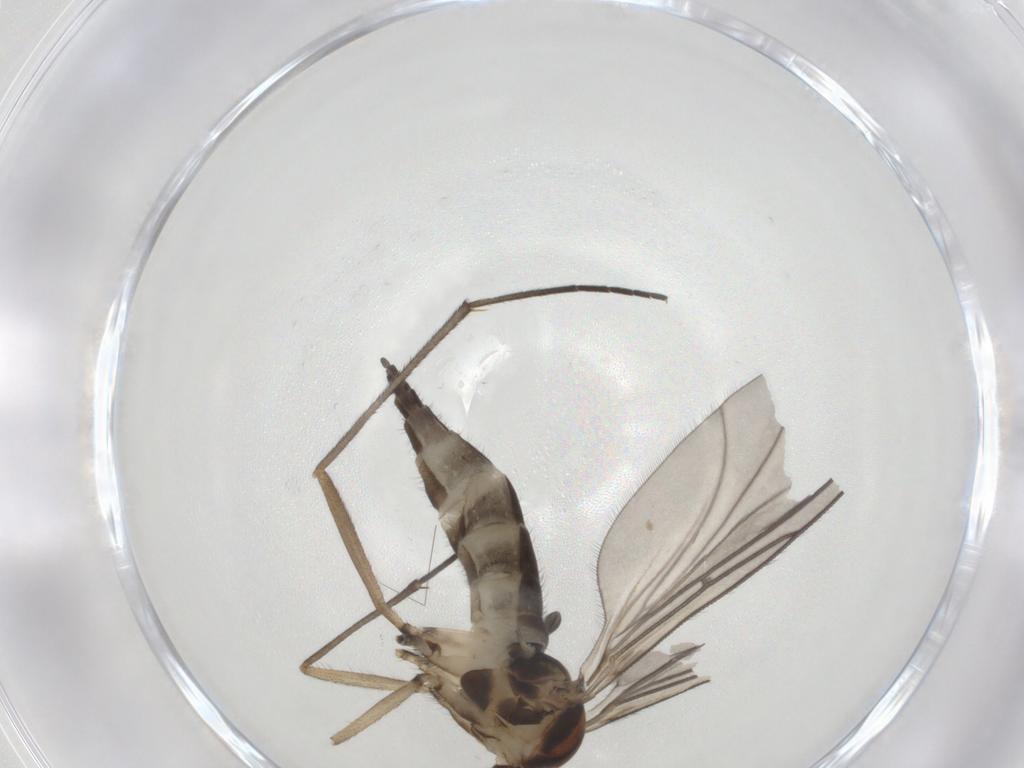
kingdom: Animalia
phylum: Arthropoda
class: Insecta
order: Diptera
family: Sciaridae
